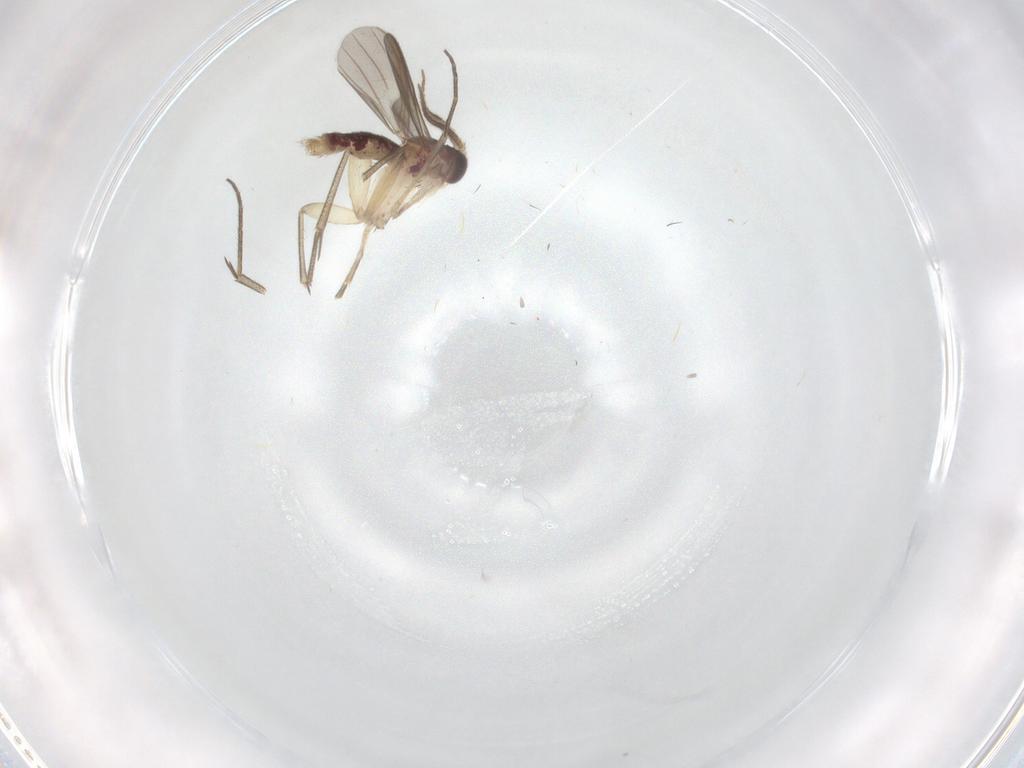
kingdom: Animalia
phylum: Arthropoda
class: Insecta
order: Diptera
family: Mycetophilidae
